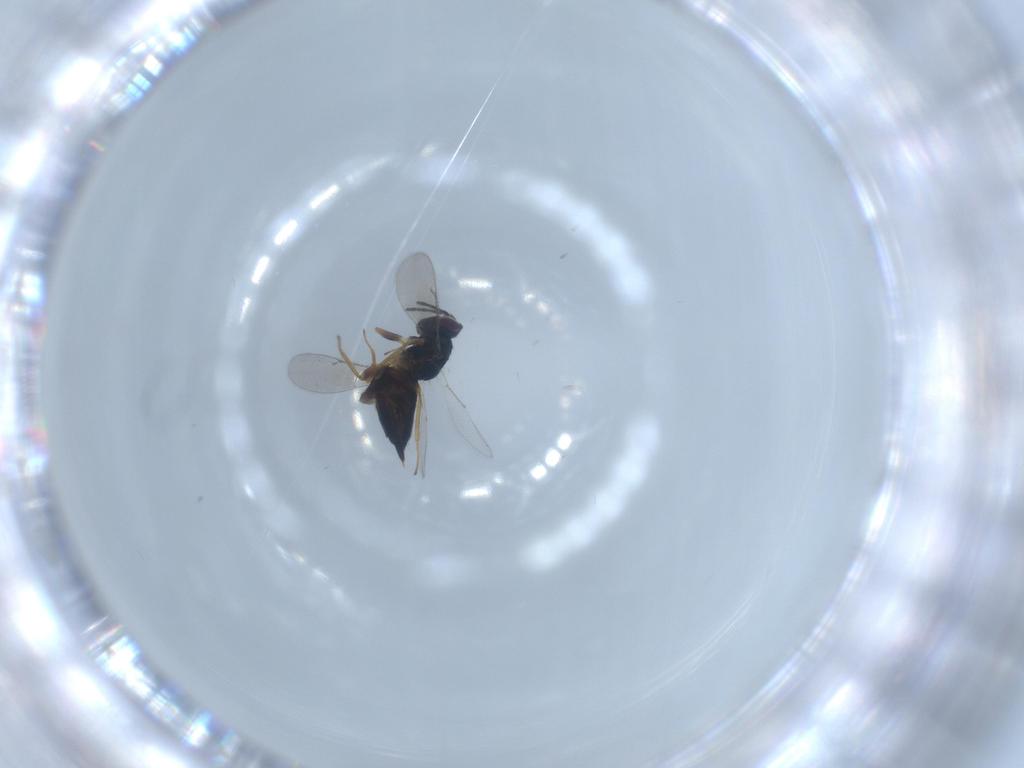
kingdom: Animalia
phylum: Arthropoda
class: Insecta
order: Hymenoptera
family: Eulophidae
